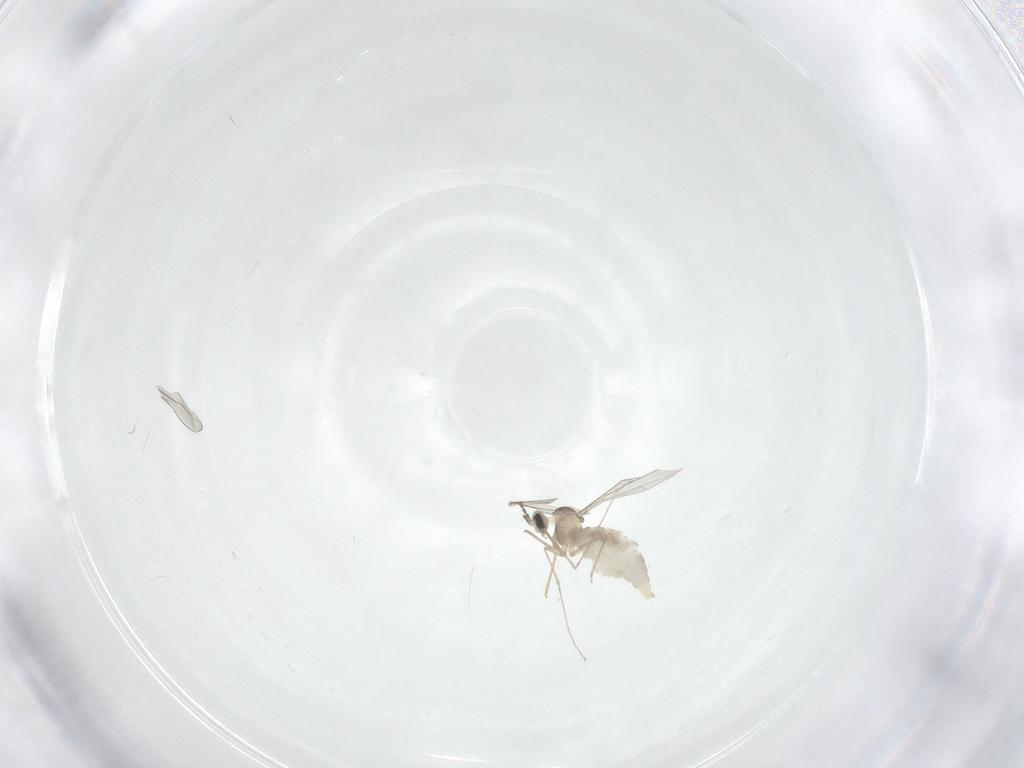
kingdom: Animalia
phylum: Arthropoda
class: Insecta
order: Diptera
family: Cecidomyiidae
